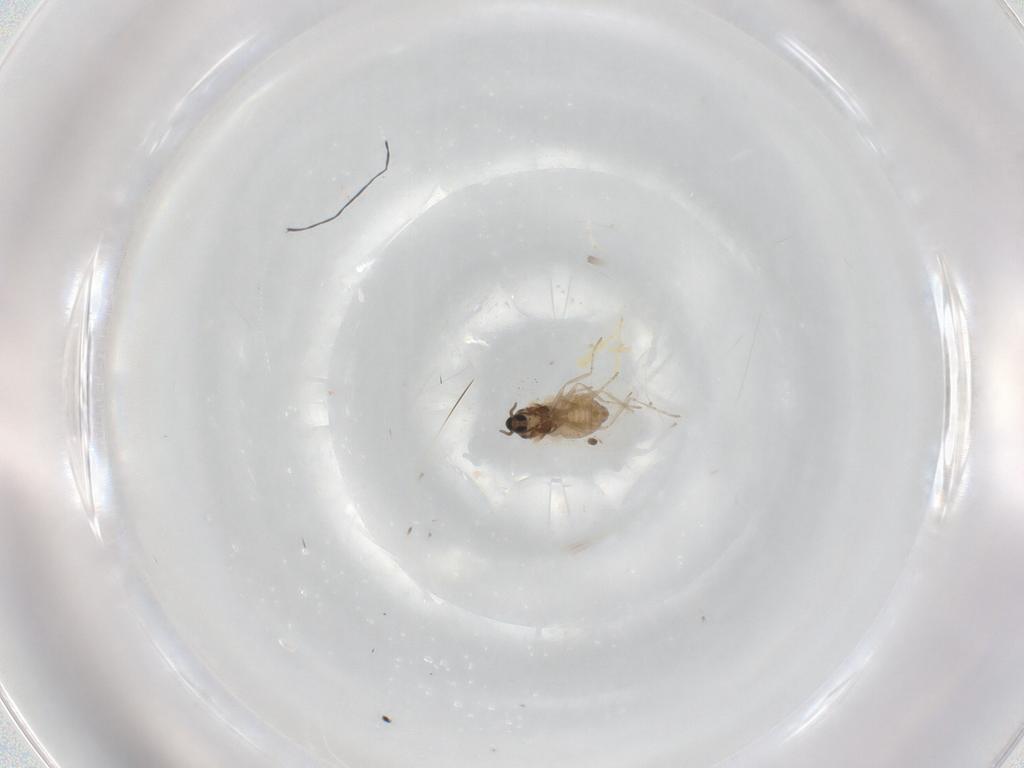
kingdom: Animalia
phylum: Arthropoda
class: Insecta
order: Diptera
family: Cecidomyiidae
